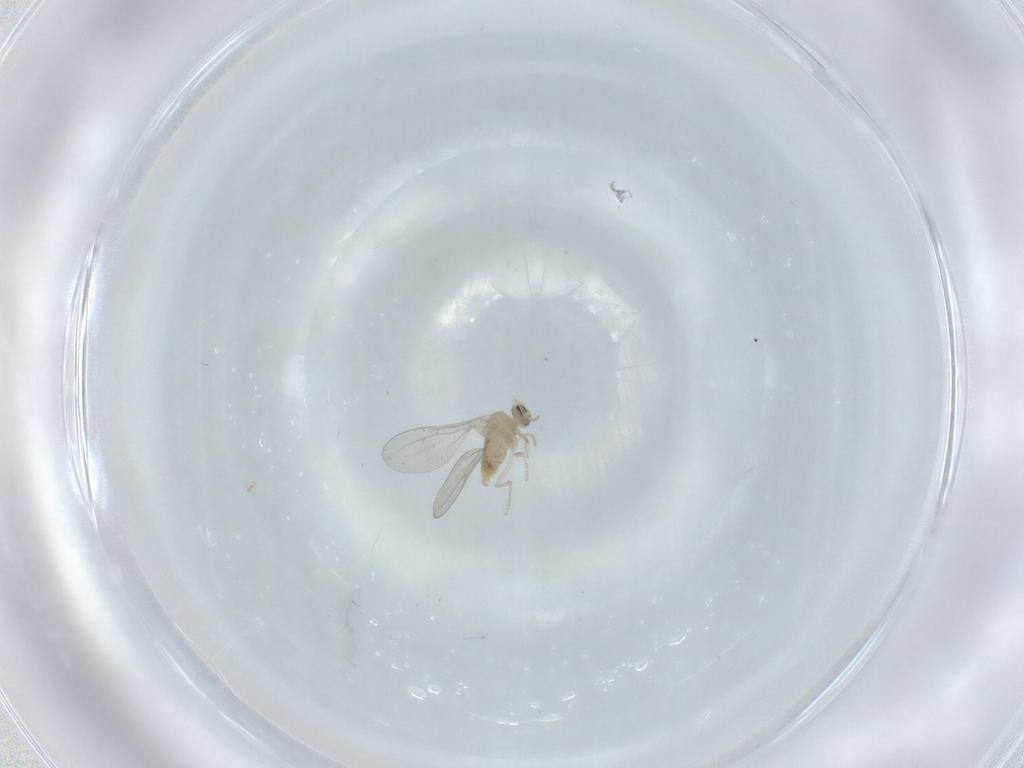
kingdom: Animalia
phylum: Arthropoda
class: Insecta
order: Diptera
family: Cecidomyiidae
